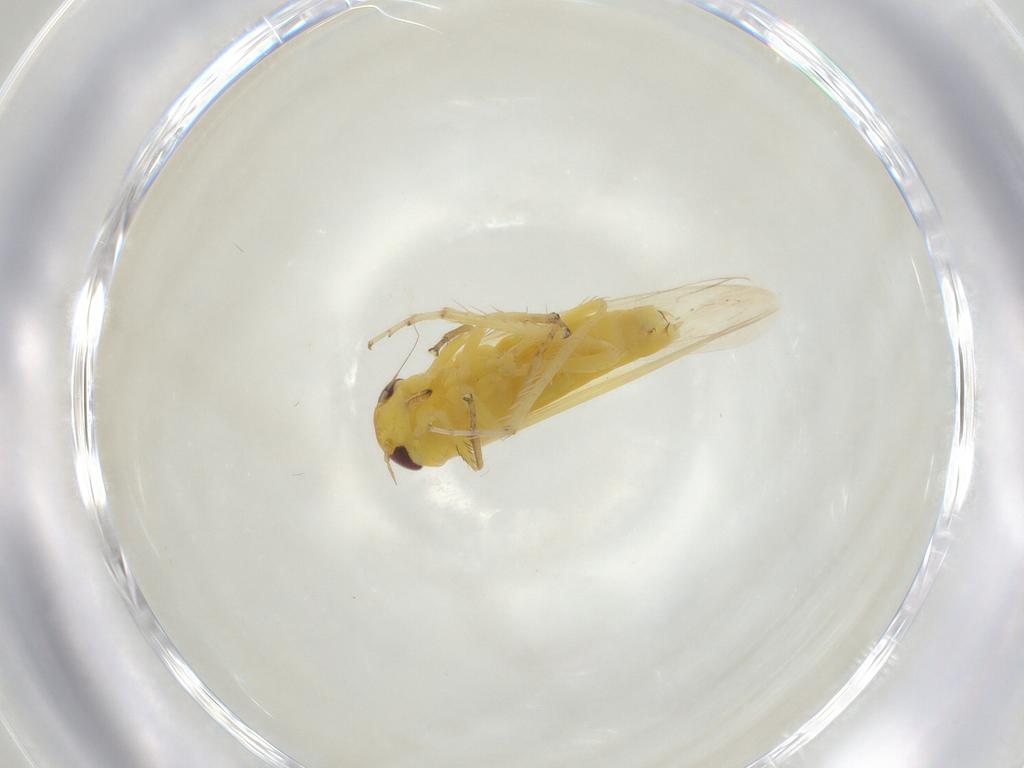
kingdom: Animalia
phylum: Arthropoda
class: Insecta
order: Hemiptera
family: Cicadellidae
